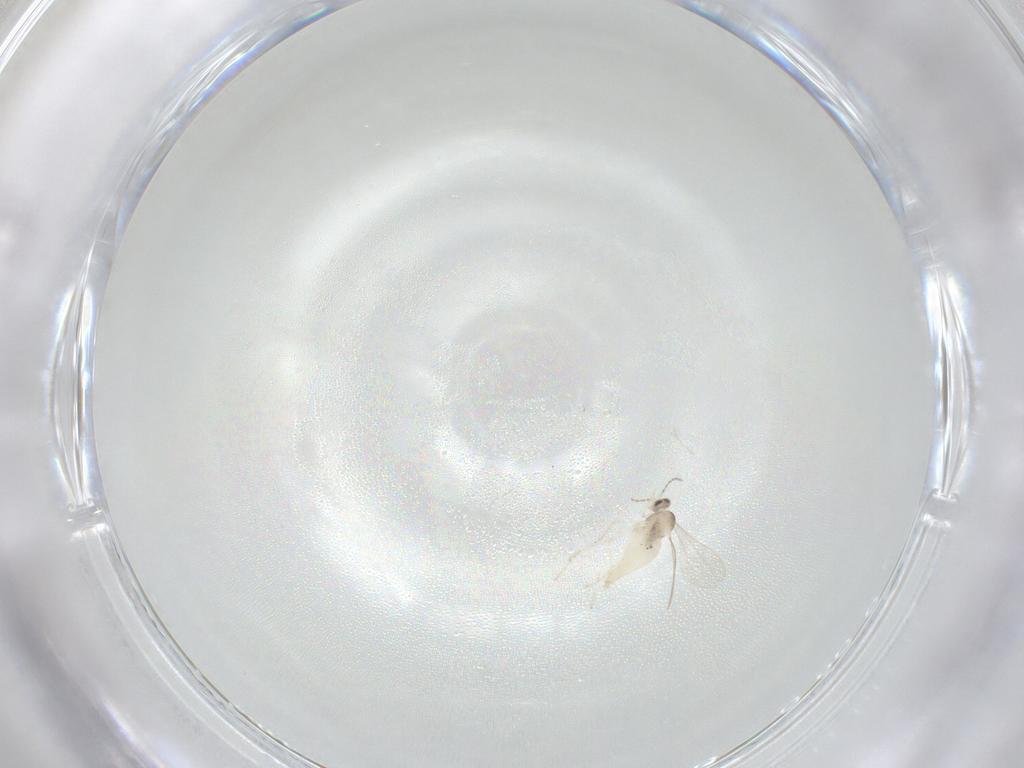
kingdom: Animalia
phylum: Arthropoda
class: Insecta
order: Diptera
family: Cecidomyiidae
